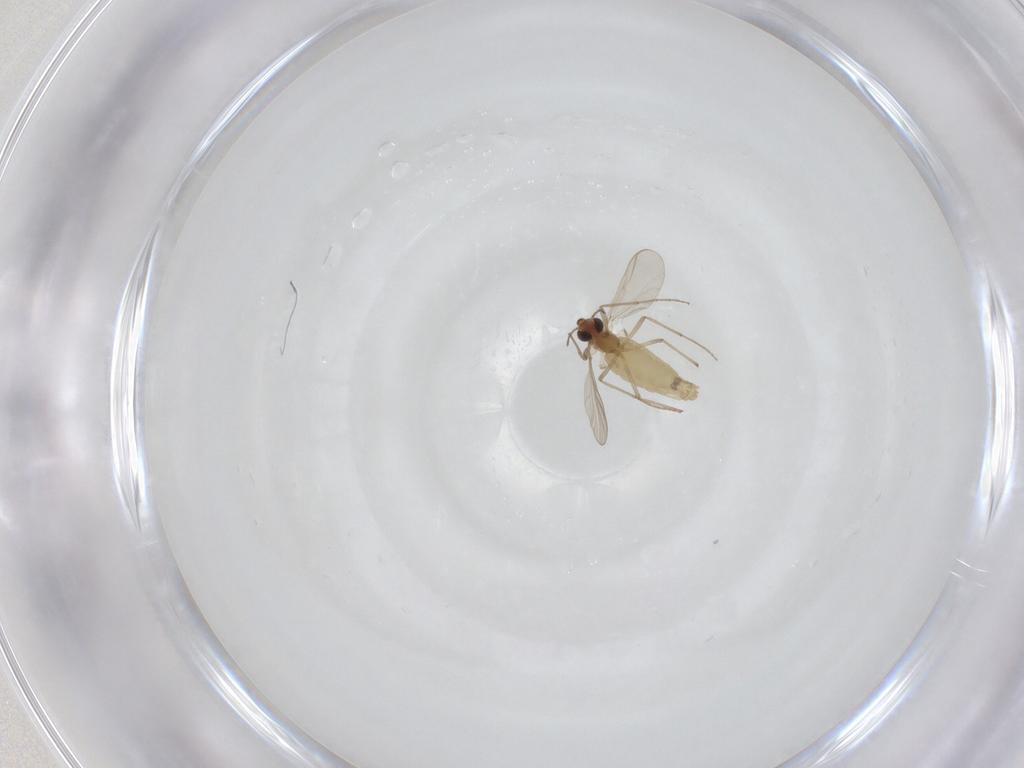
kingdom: Animalia
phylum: Arthropoda
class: Insecta
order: Diptera
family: Chironomidae
